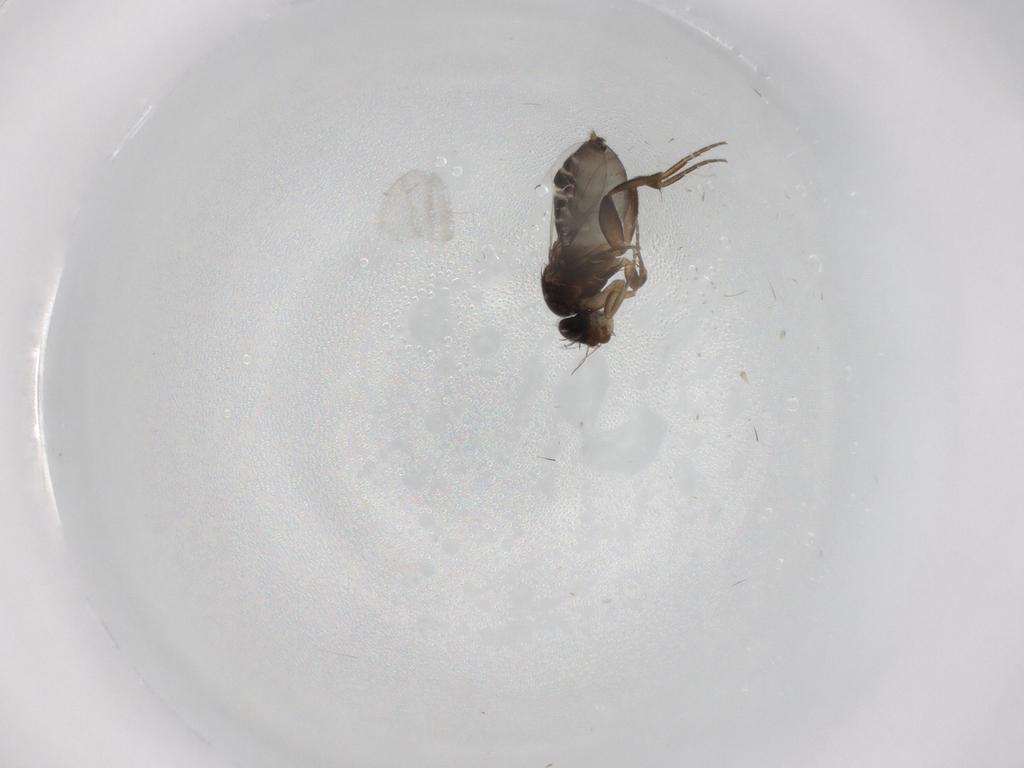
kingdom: Animalia
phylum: Arthropoda
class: Insecta
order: Diptera
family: Phoridae
